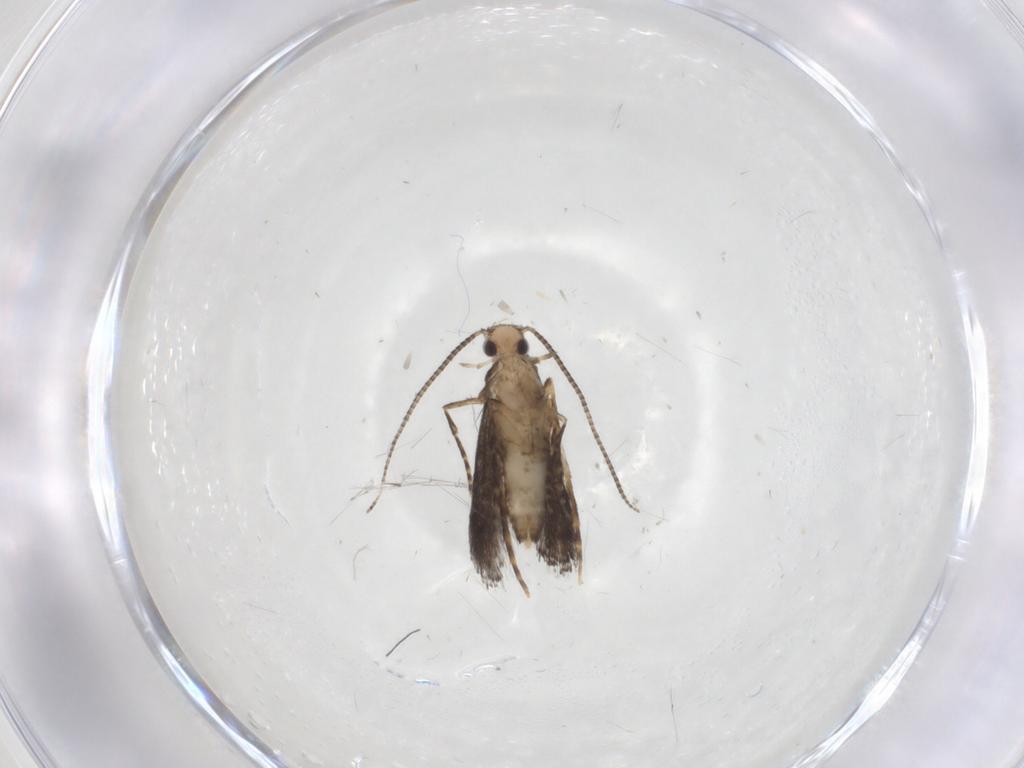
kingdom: Animalia
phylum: Arthropoda
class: Insecta
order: Lepidoptera
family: Gracillariidae
